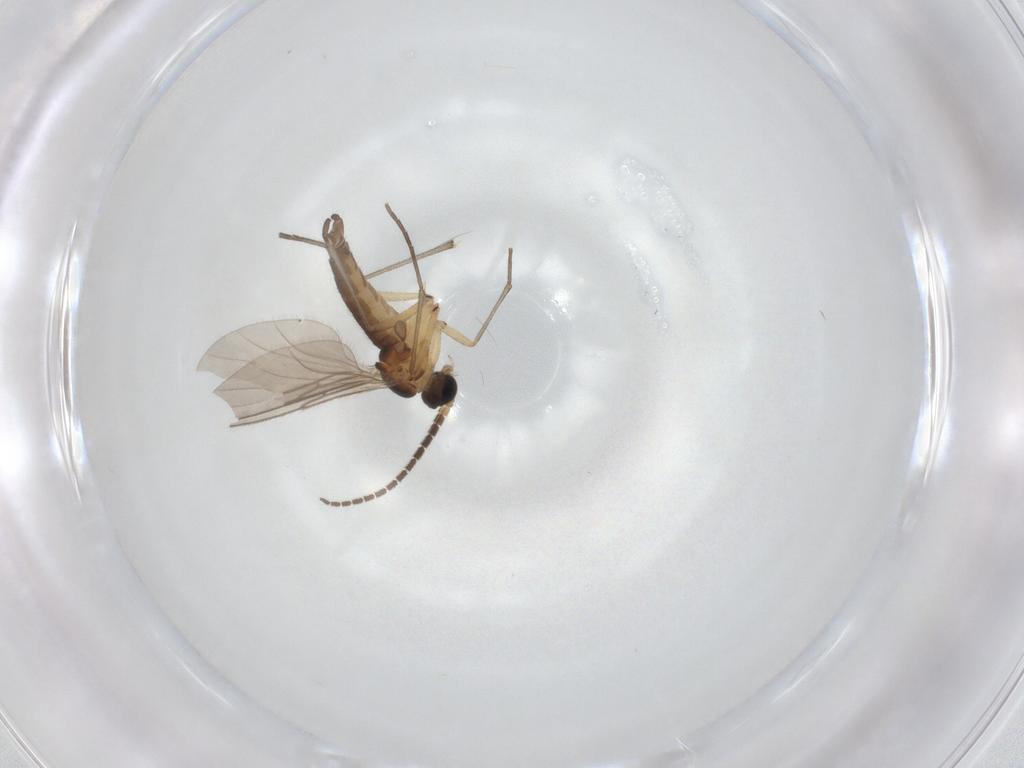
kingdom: Animalia
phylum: Arthropoda
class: Insecta
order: Diptera
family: Sciaridae
